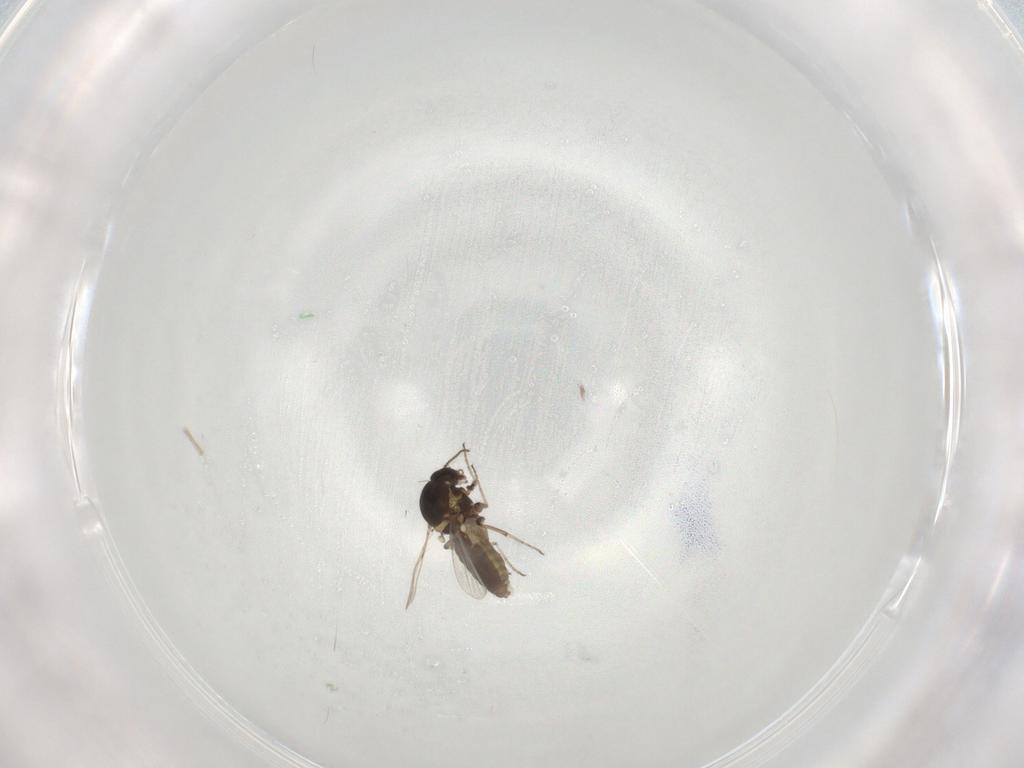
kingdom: Animalia
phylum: Arthropoda
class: Insecta
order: Diptera
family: Ceratopogonidae
